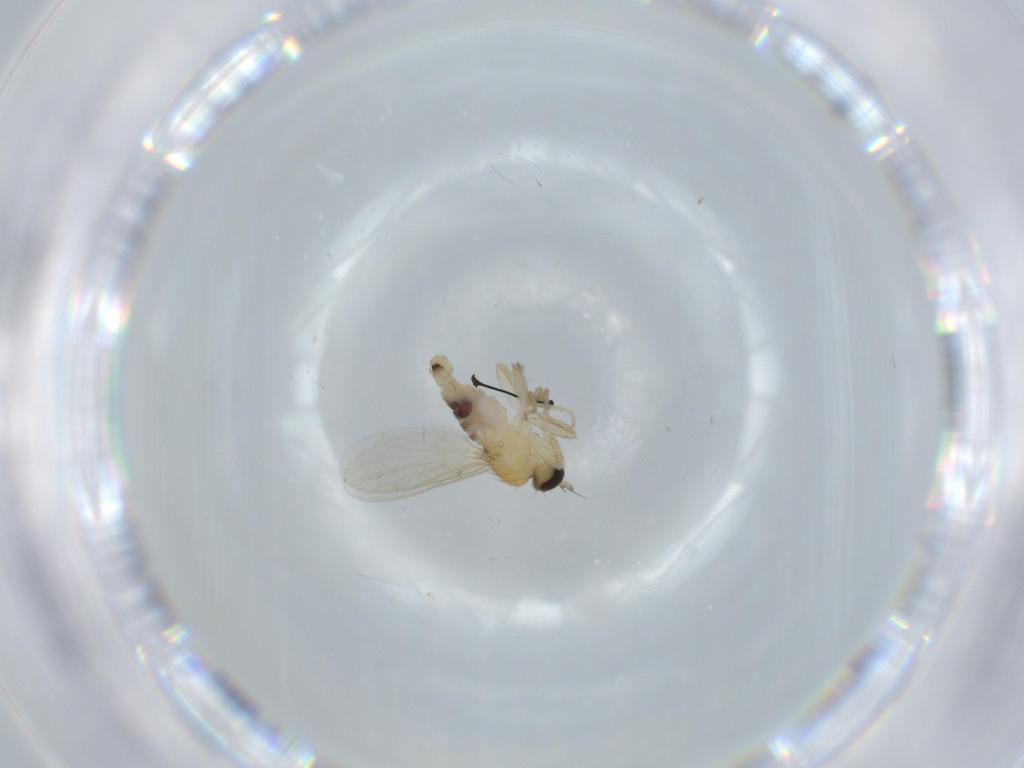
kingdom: Animalia
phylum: Arthropoda
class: Insecta
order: Diptera
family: Hybotidae
